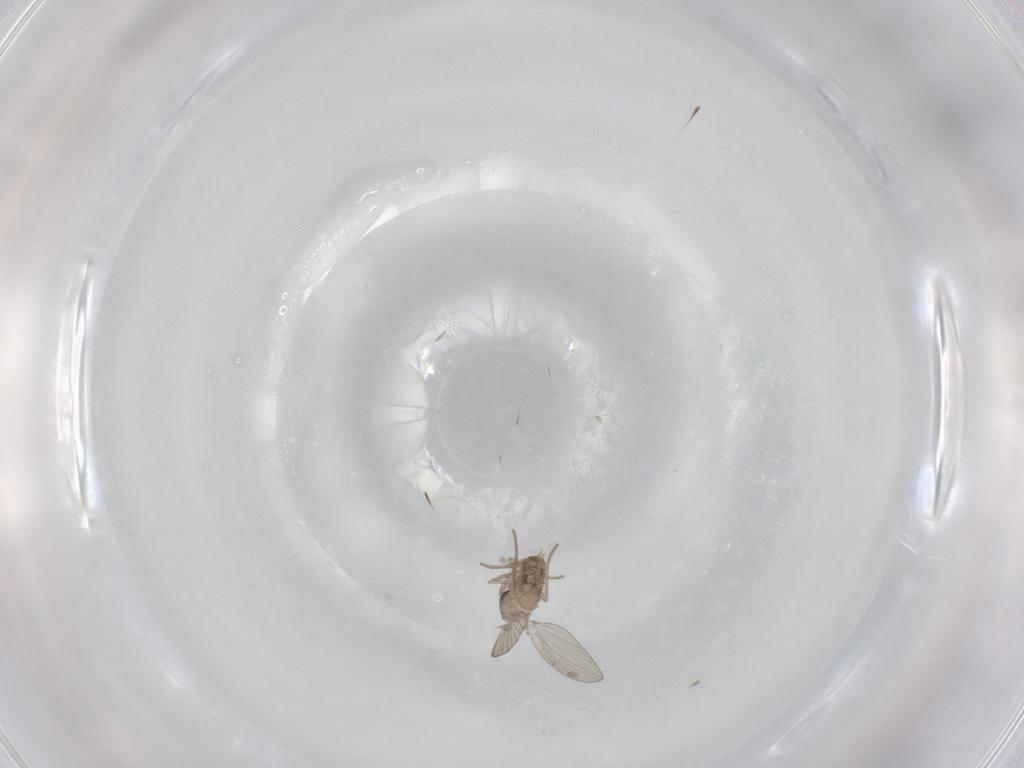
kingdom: Animalia
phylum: Arthropoda
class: Insecta
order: Diptera
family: Psychodidae
